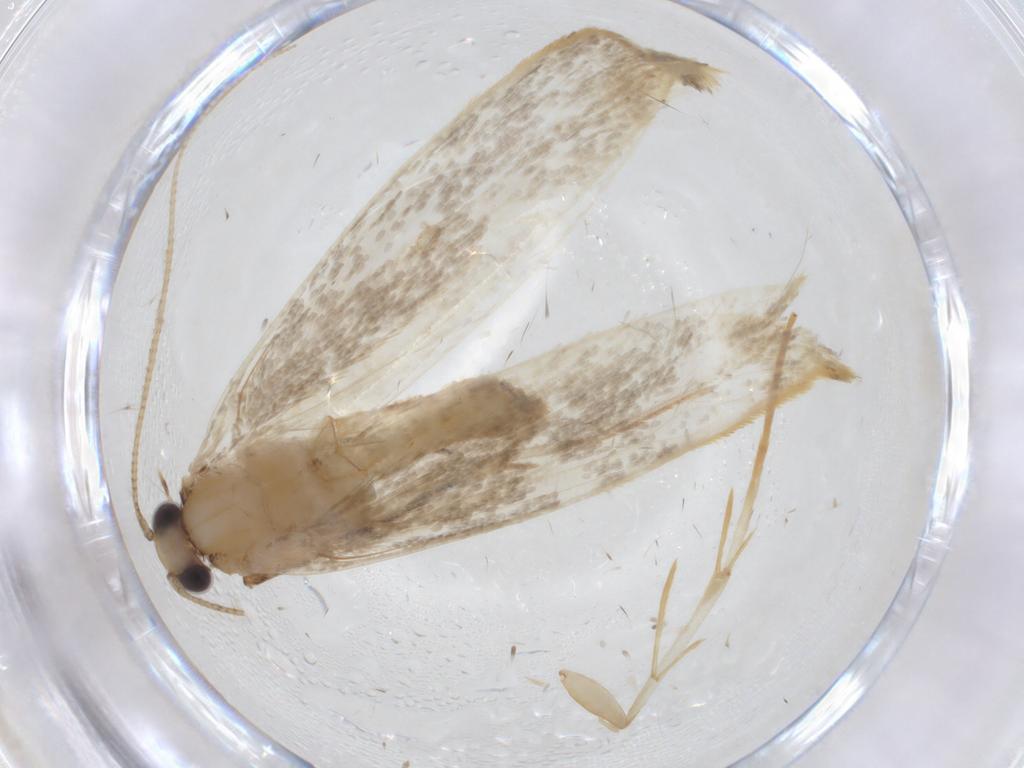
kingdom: Animalia
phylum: Arthropoda
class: Insecta
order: Lepidoptera
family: Tineidae
